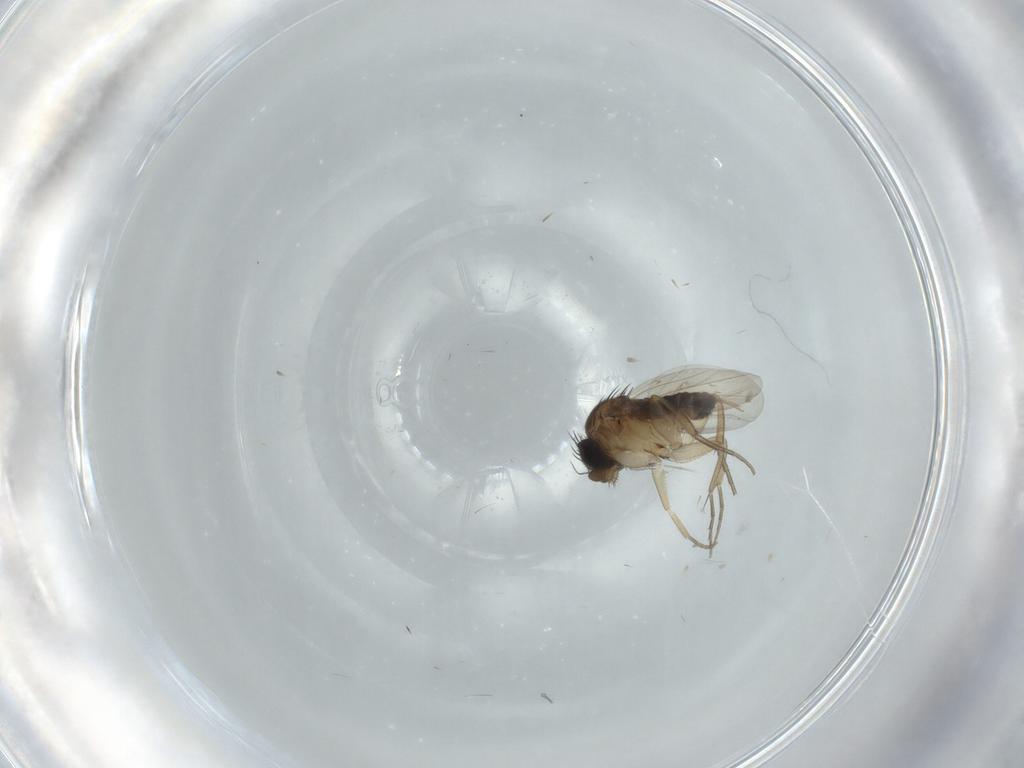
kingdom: Animalia
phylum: Arthropoda
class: Insecta
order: Diptera
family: Phoridae
